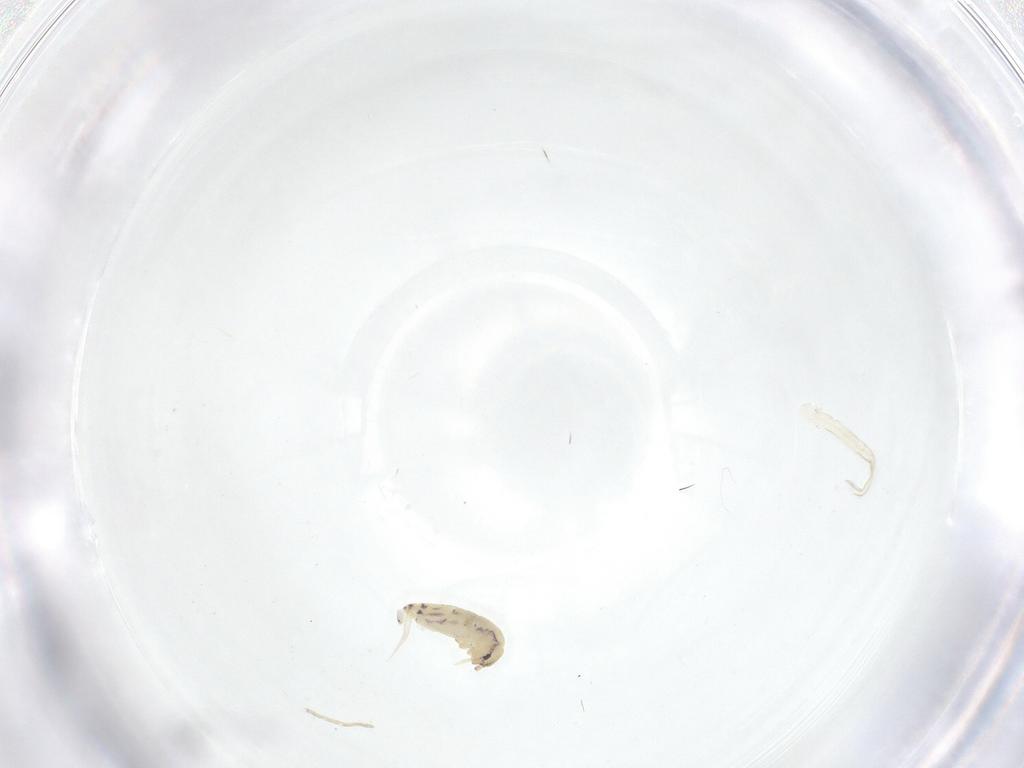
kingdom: Animalia
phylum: Arthropoda
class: Collembola
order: Entomobryomorpha
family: Entomobryidae
